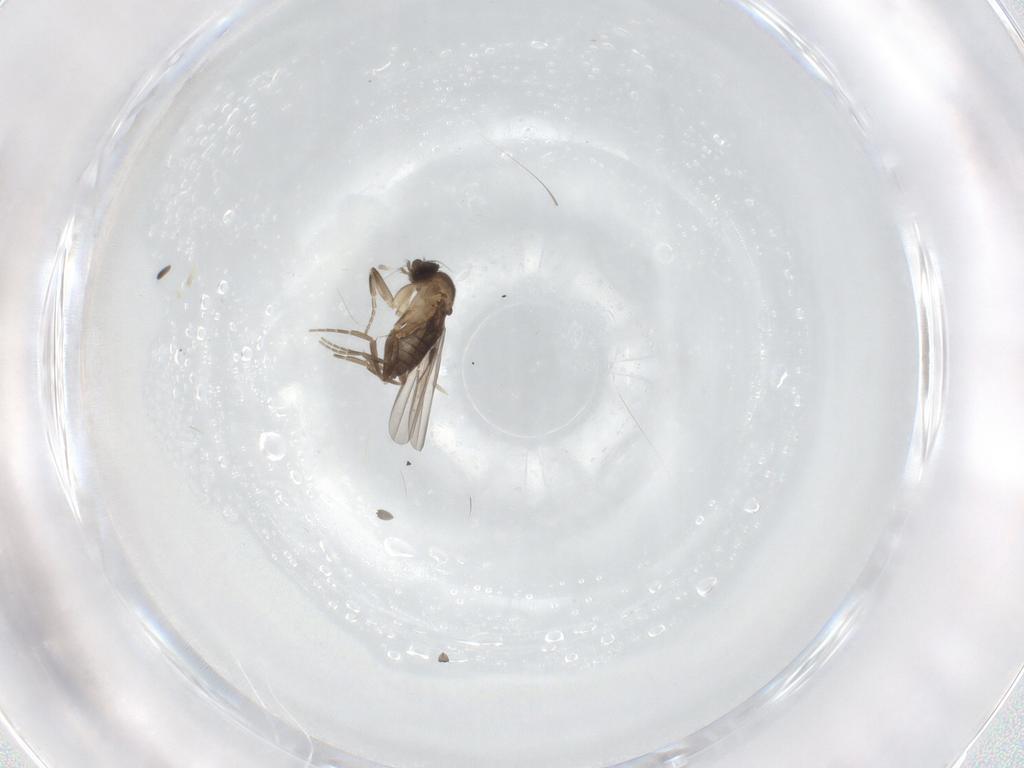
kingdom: Animalia
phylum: Arthropoda
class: Insecta
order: Diptera
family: Phoridae
